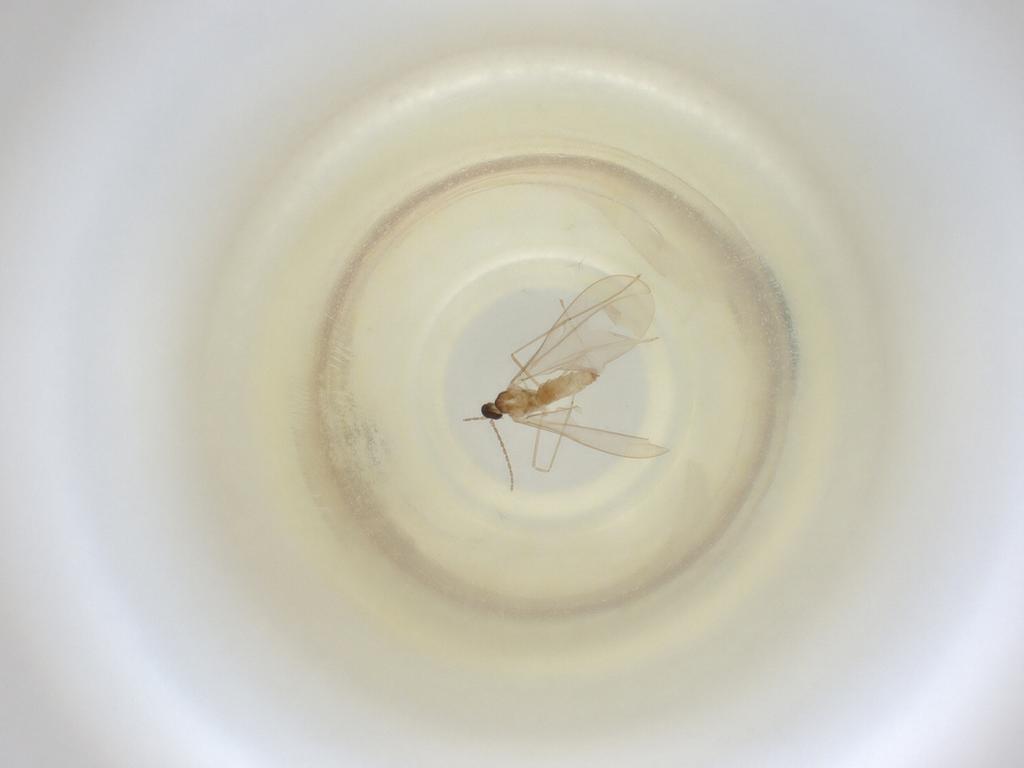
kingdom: Animalia
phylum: Arthropoda
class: Insecta
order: Diptera
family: Cecidomyiidae
